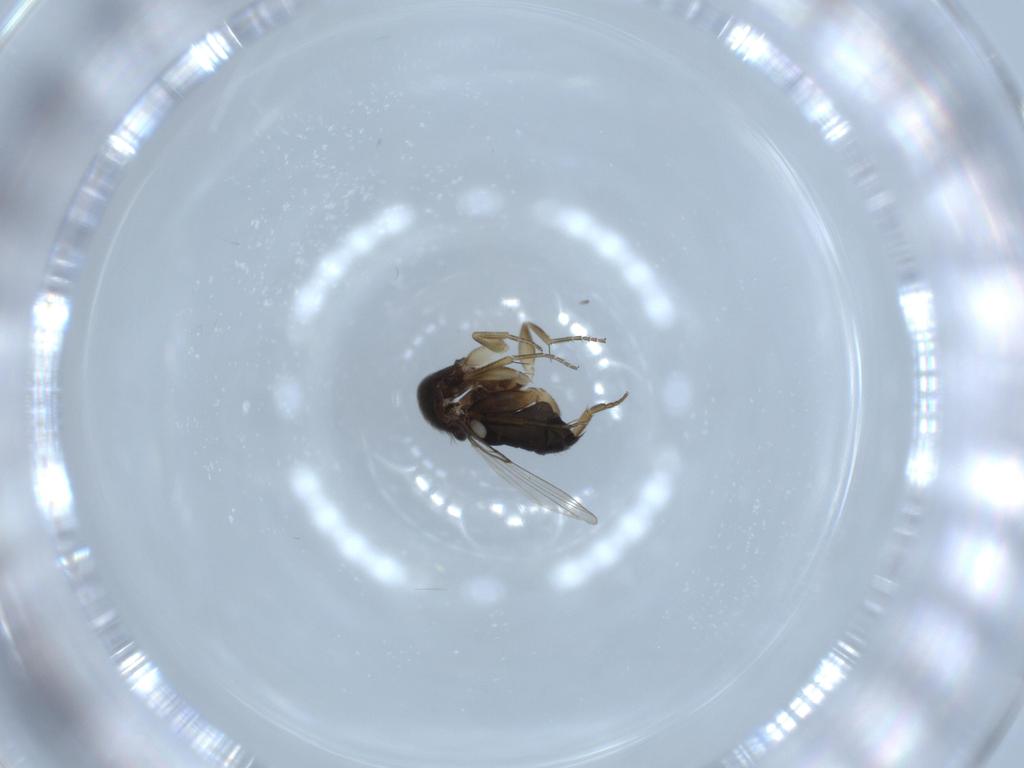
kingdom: Animalia
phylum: Arthropoda
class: Insecta
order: Diptera
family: Phoridae
